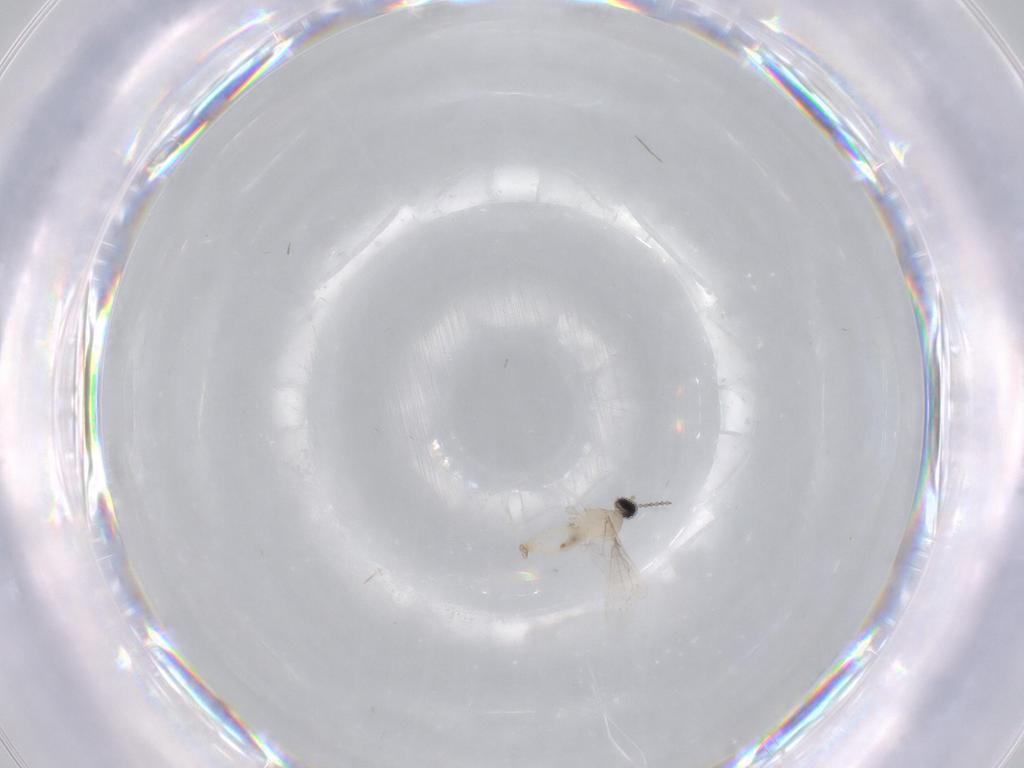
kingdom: Animalia
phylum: Arthropoda
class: Insecta
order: Diptera
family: Cecidomyiidae
